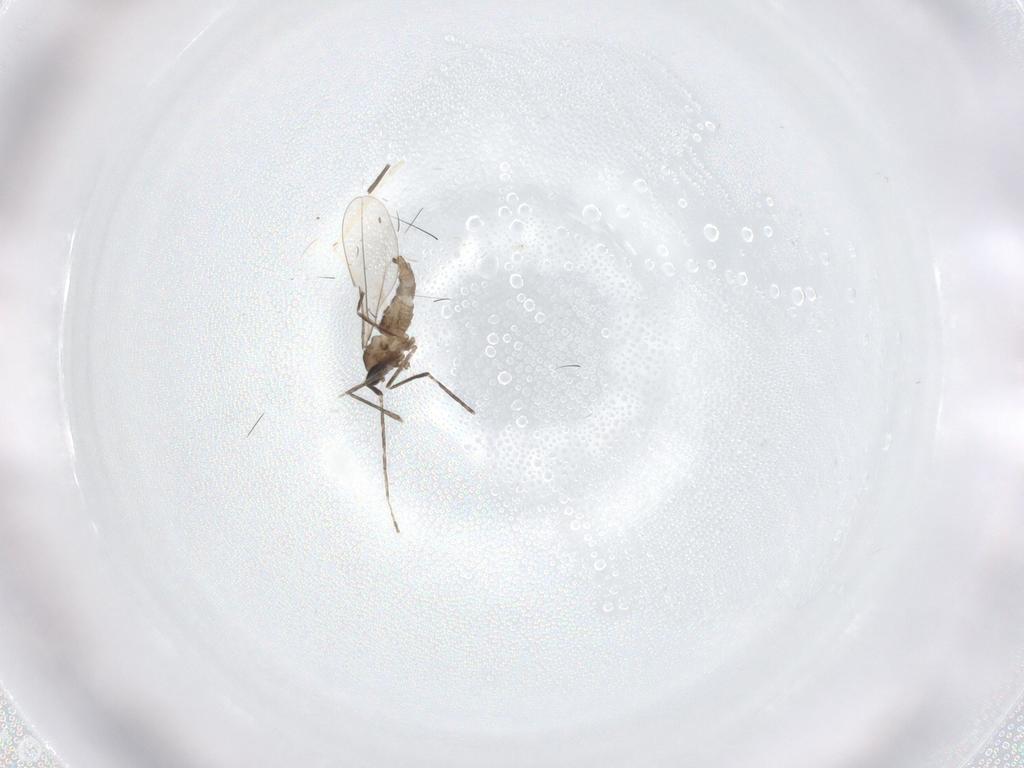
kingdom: Animalia
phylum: Arthropoda
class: Insecta
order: Diptera
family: Cecidomyiidae
